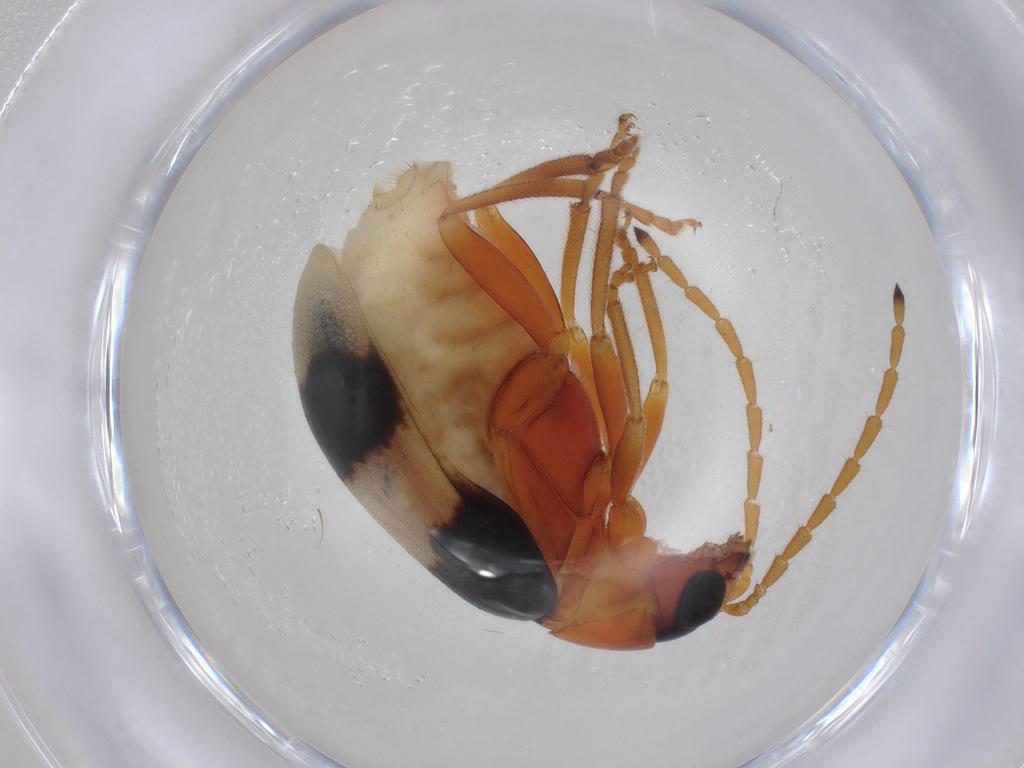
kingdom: Animalia
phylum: Arthropoda
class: Insecta
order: Coleoptera
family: Chrysomelidae
